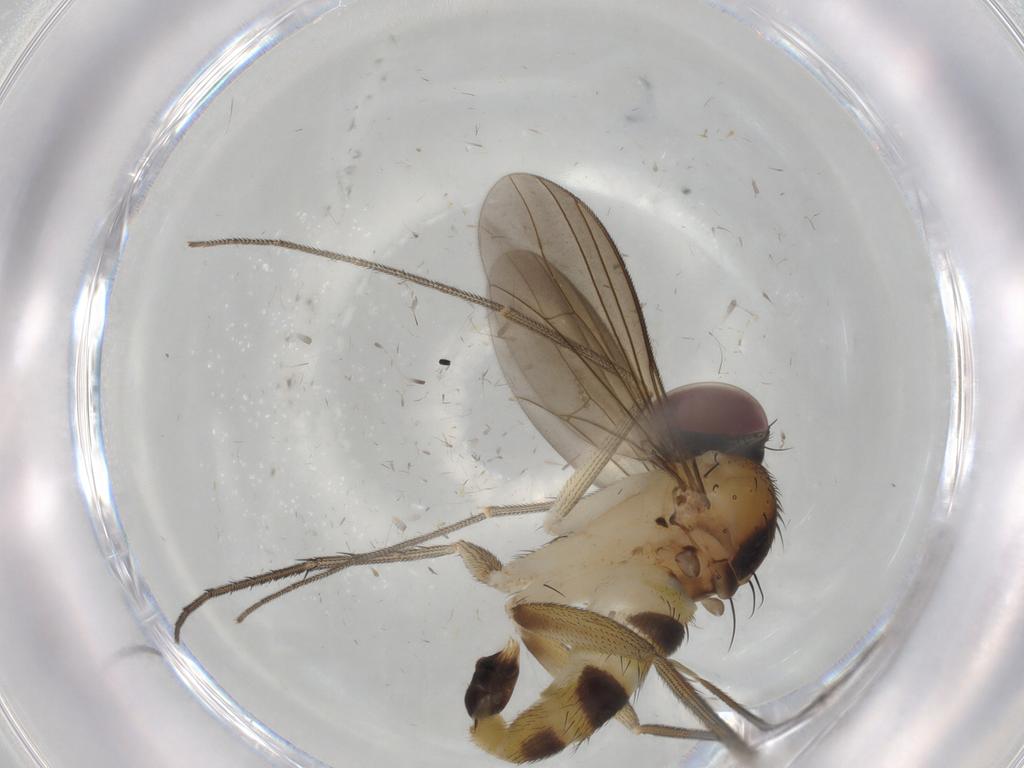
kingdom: Animalia
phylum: Arthropoda
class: Insecta
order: Diptera
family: Dolichopodidae
